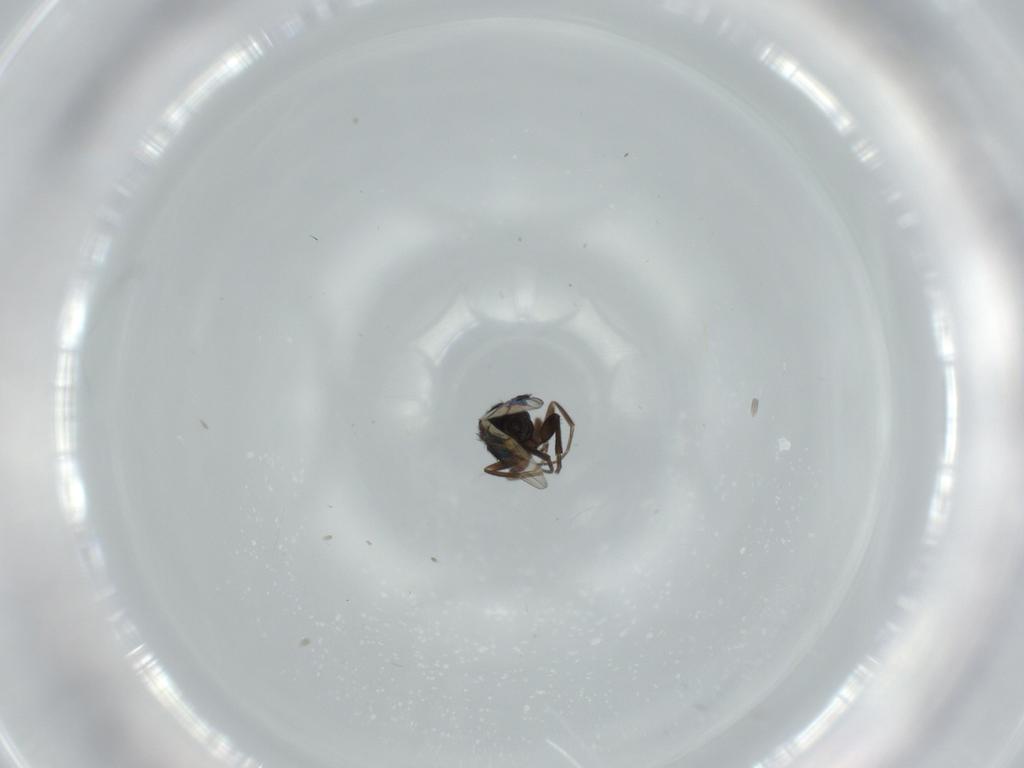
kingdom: Animalia
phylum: Arthropoda
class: Insecta
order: Diptera
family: Phoridae
